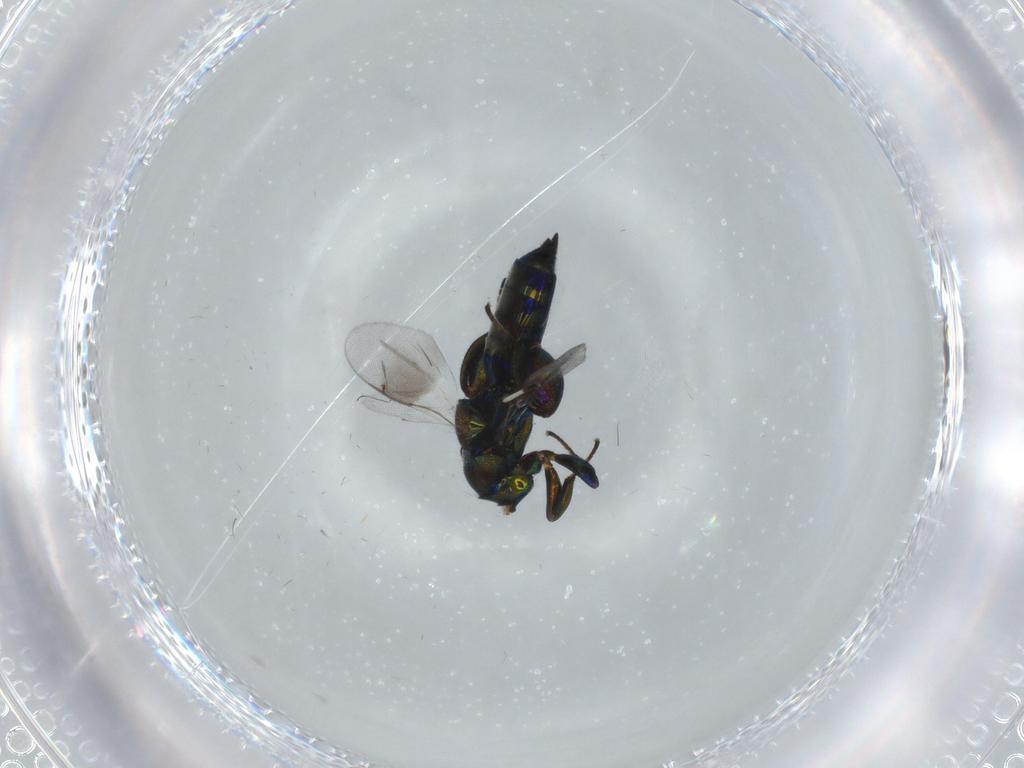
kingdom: Animalia
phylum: Arthropoda
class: Insecta
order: Hymenoptera
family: Pteromalidae
